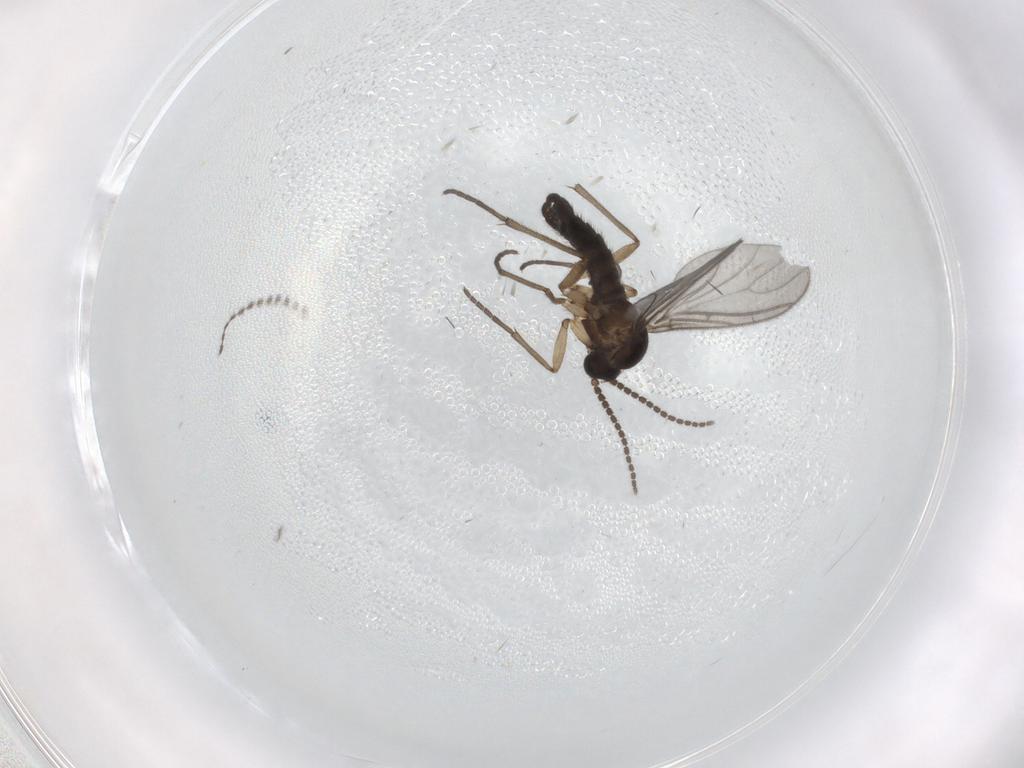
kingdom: Animalia
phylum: Arthropoda
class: Insecta
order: Diptera
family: Sciaridae
